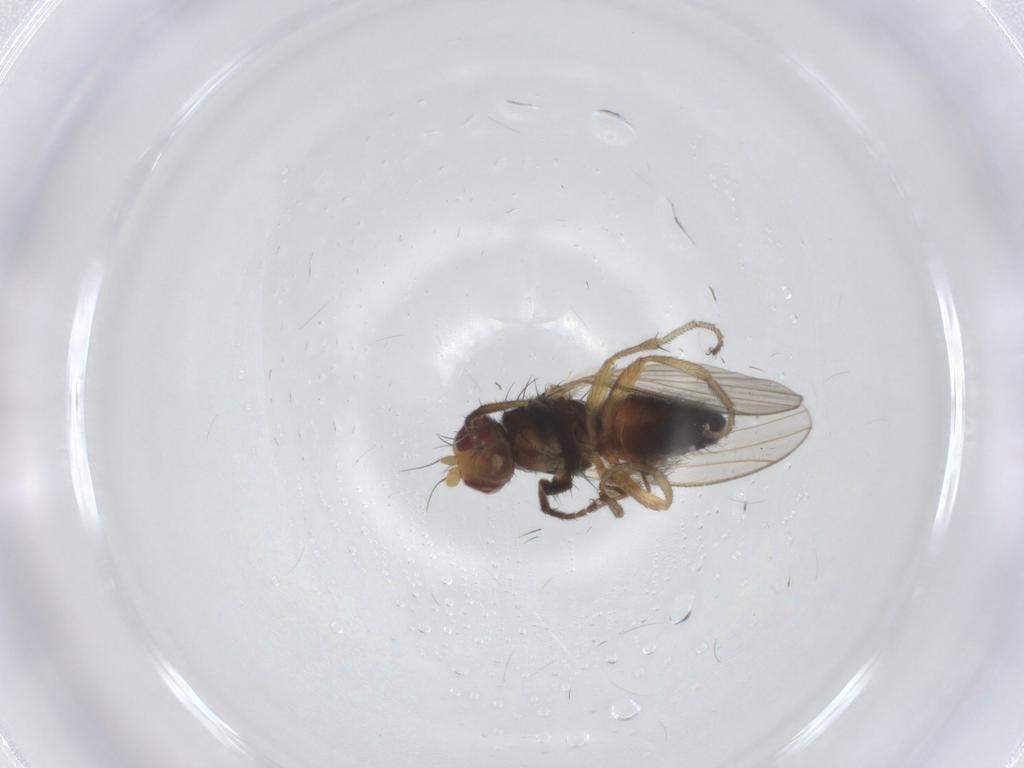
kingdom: Animalia
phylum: Arthropoda
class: Insecta
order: Diptera
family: Heleomyzidae
